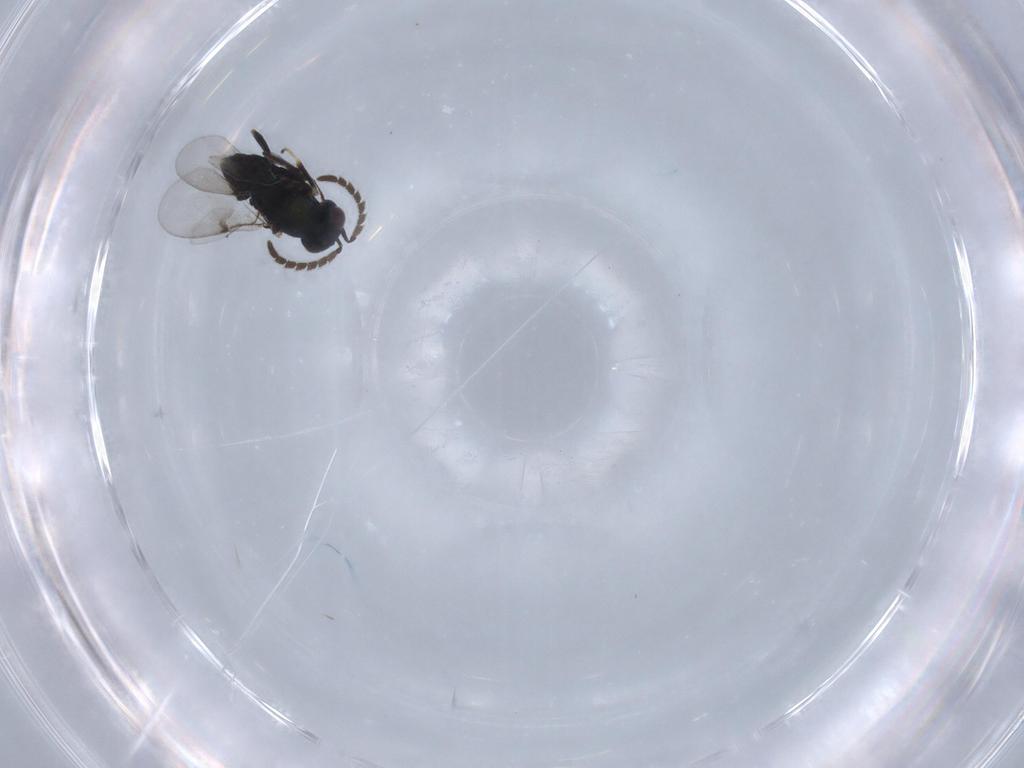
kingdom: Animalia
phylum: Arthropoda
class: Insecta
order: Hymenoptera
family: Encyrtidae
